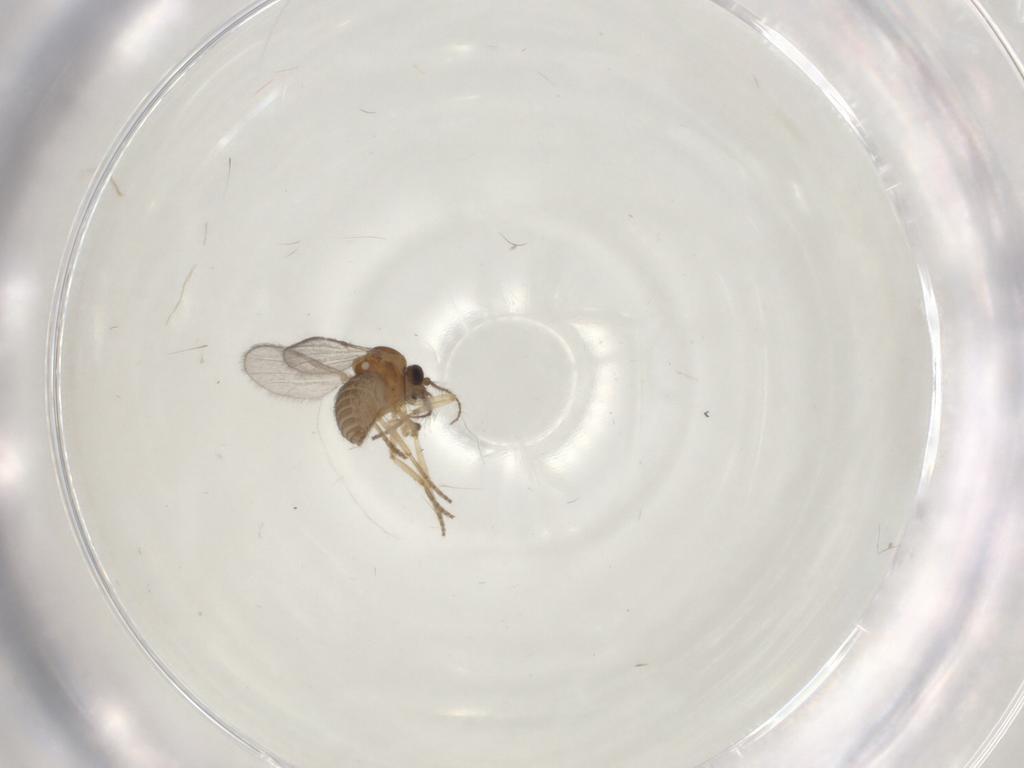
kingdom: Animalia
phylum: Arthropoda
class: Insecta
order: Diptera
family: Ceratopogonidae
